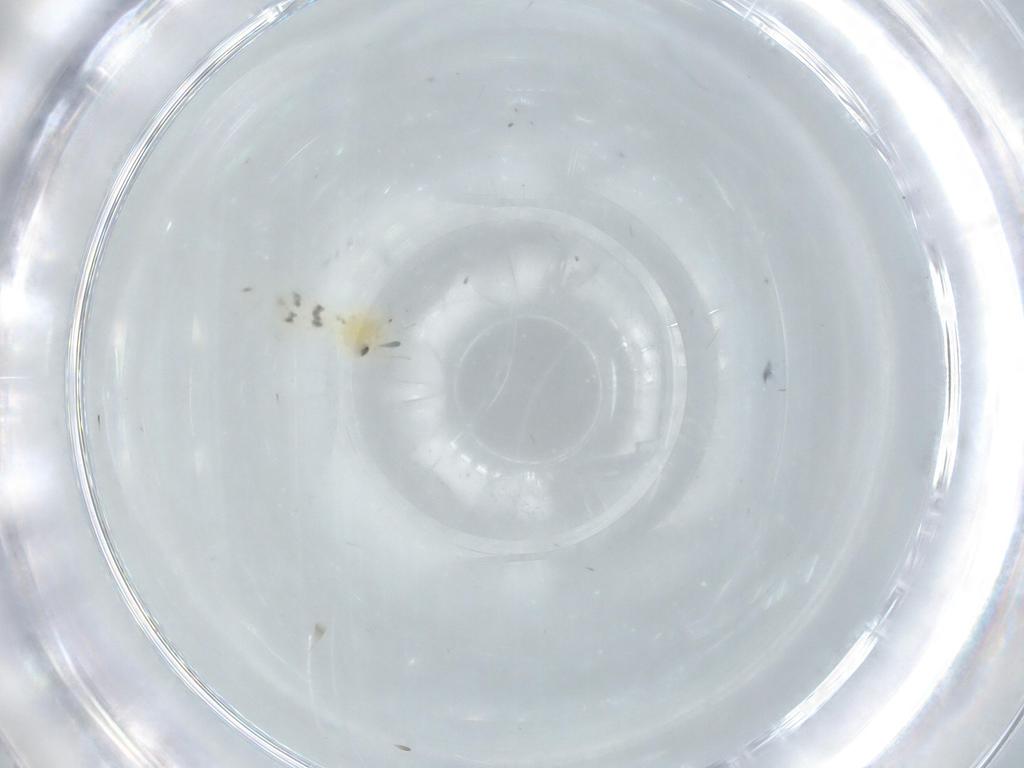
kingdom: Animalia
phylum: Arthropoda
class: Insecta
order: Hemiptera
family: Aleyrodidae
